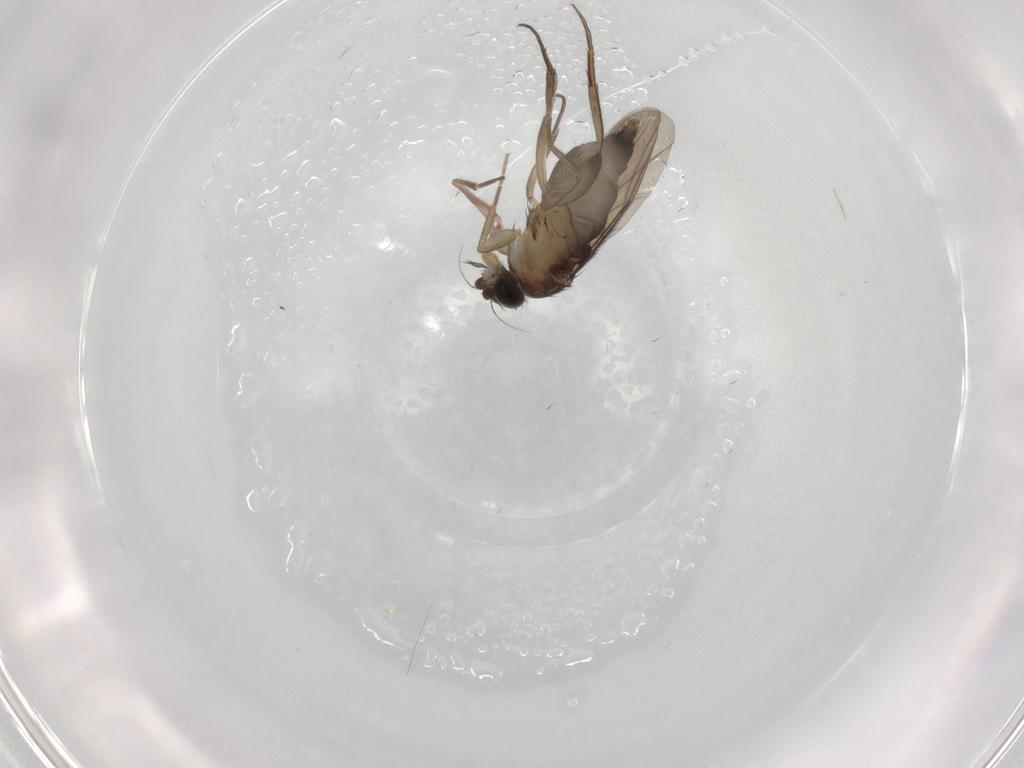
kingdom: Animalia
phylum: Arthropoda
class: Insecta
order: Diptera
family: Phoridae
